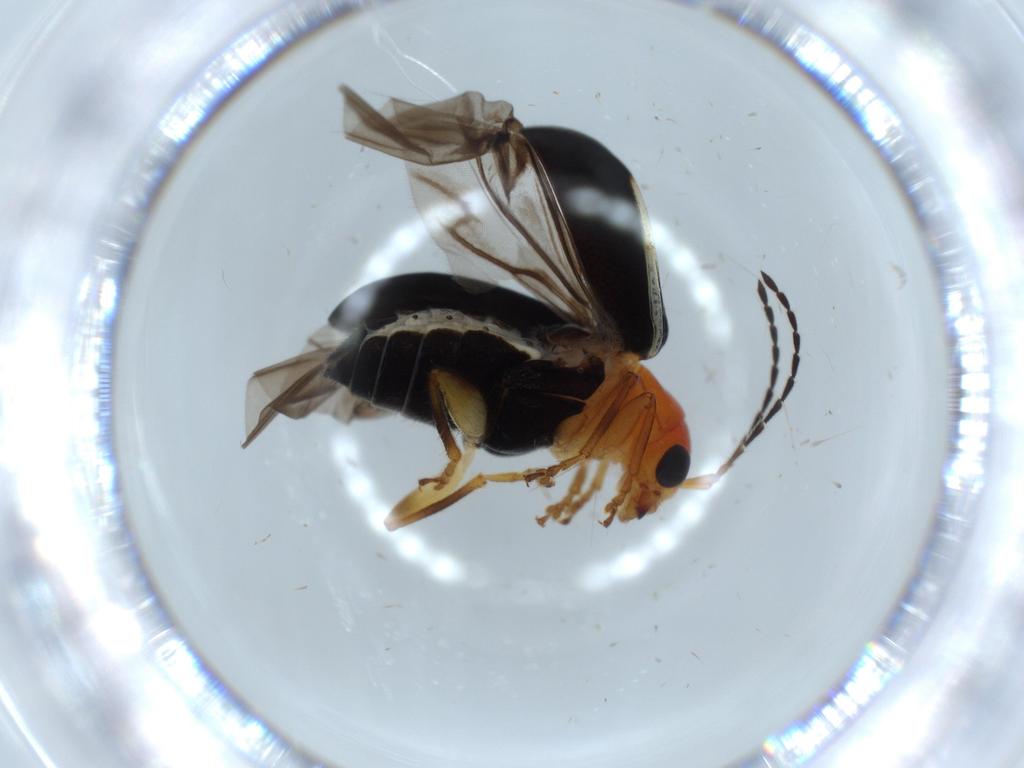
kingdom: Animalia
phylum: Arthropoda
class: Insecta
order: Coleoptera
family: Chrysomelidae
